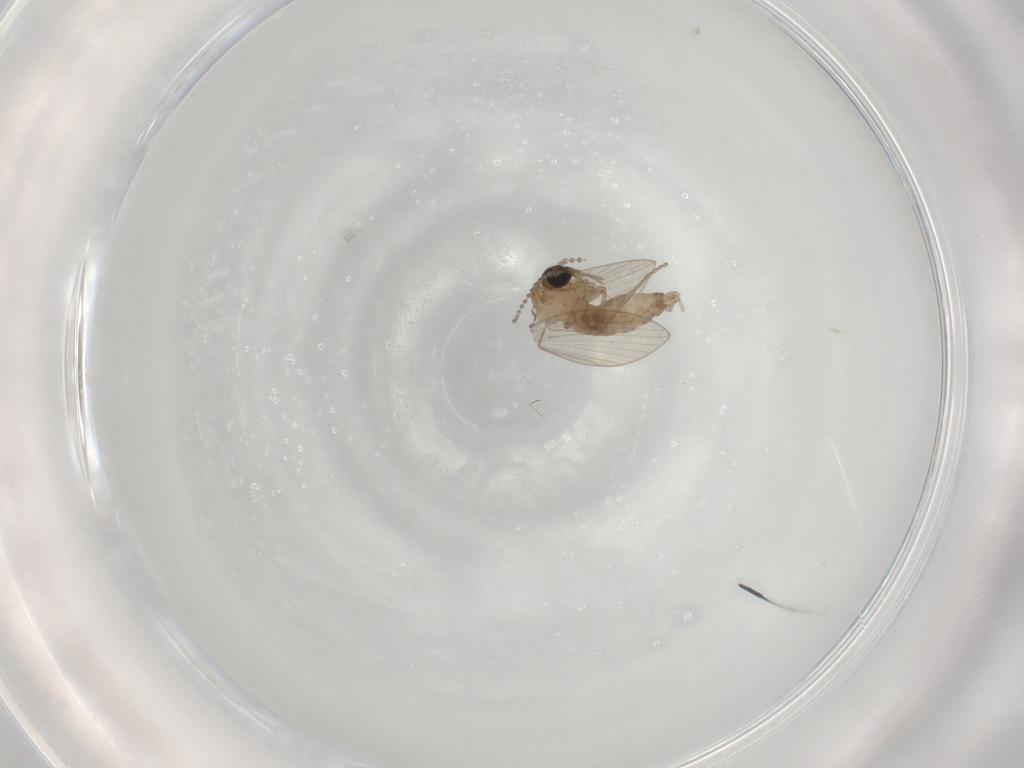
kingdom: Animalia
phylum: Arthropoda
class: Insecta
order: Diptera
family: Psychodidae
